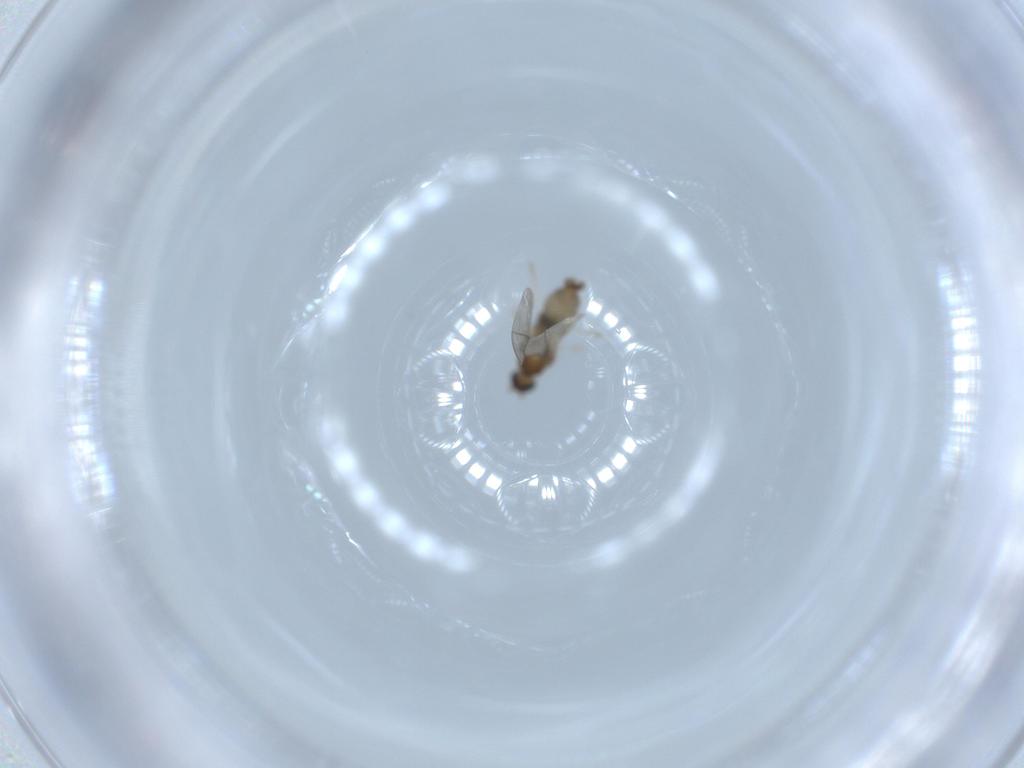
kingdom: Animalia
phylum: Arthropoda
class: Insecta
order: Diptera
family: Cecidomyiidae
